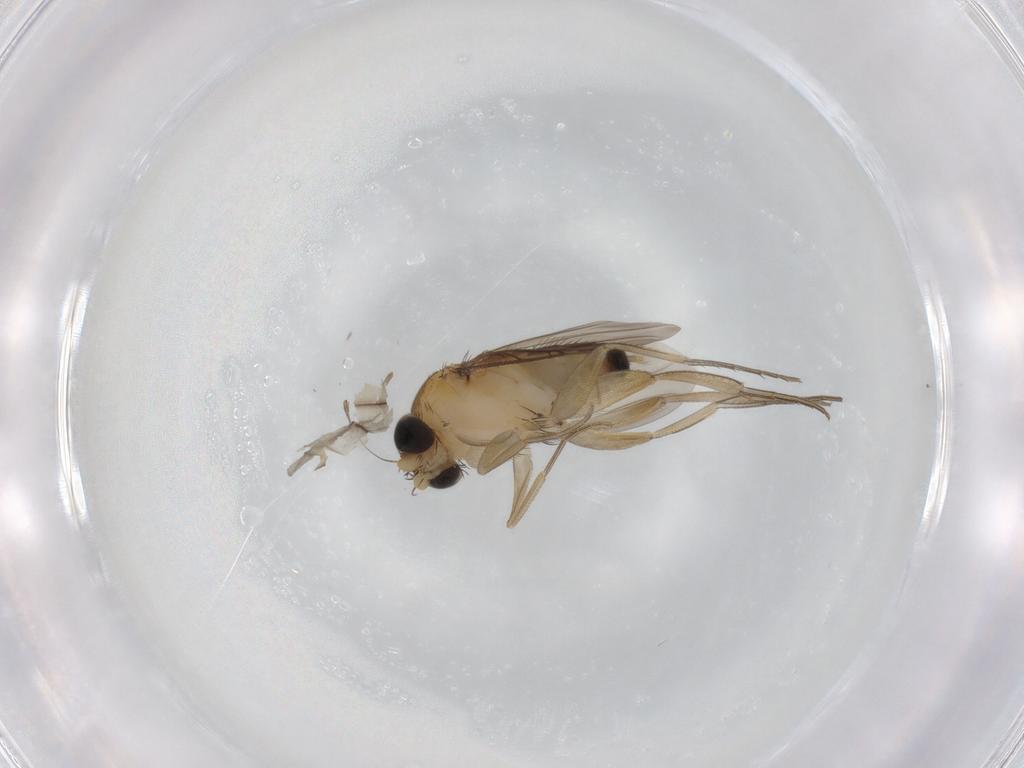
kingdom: Animalia
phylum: Arthropoda
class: Insecta
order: Diptera
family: Phoridae
